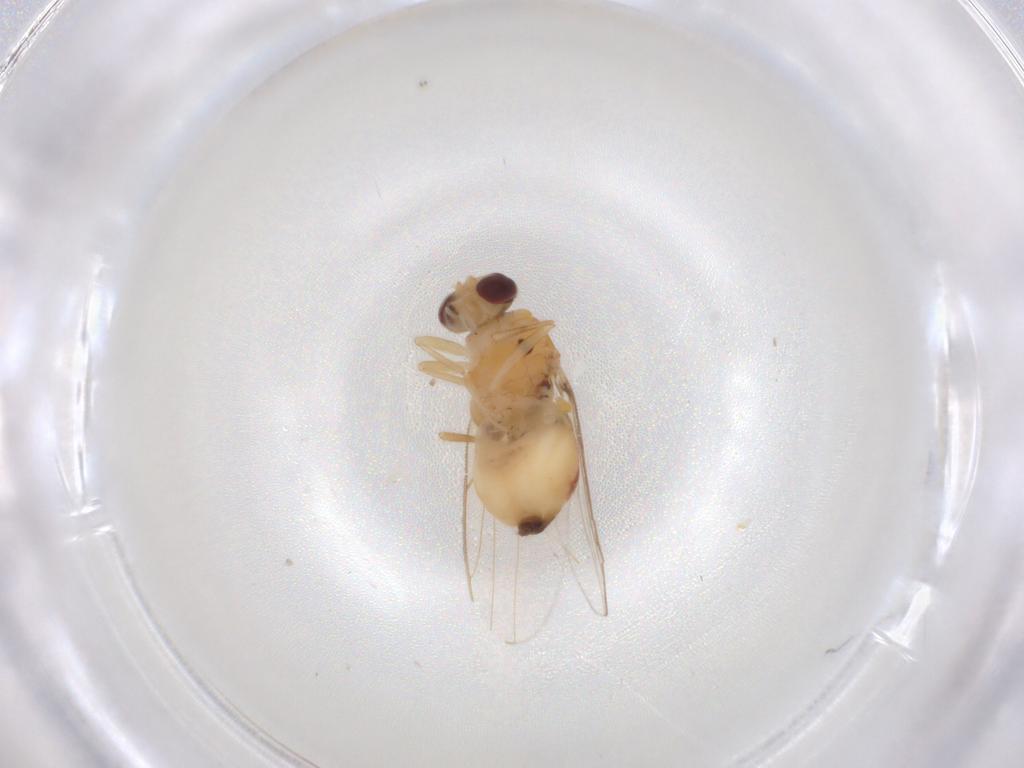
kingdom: Animalia
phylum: Arthropoda
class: Insecta
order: Diptera
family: Chloropidae
